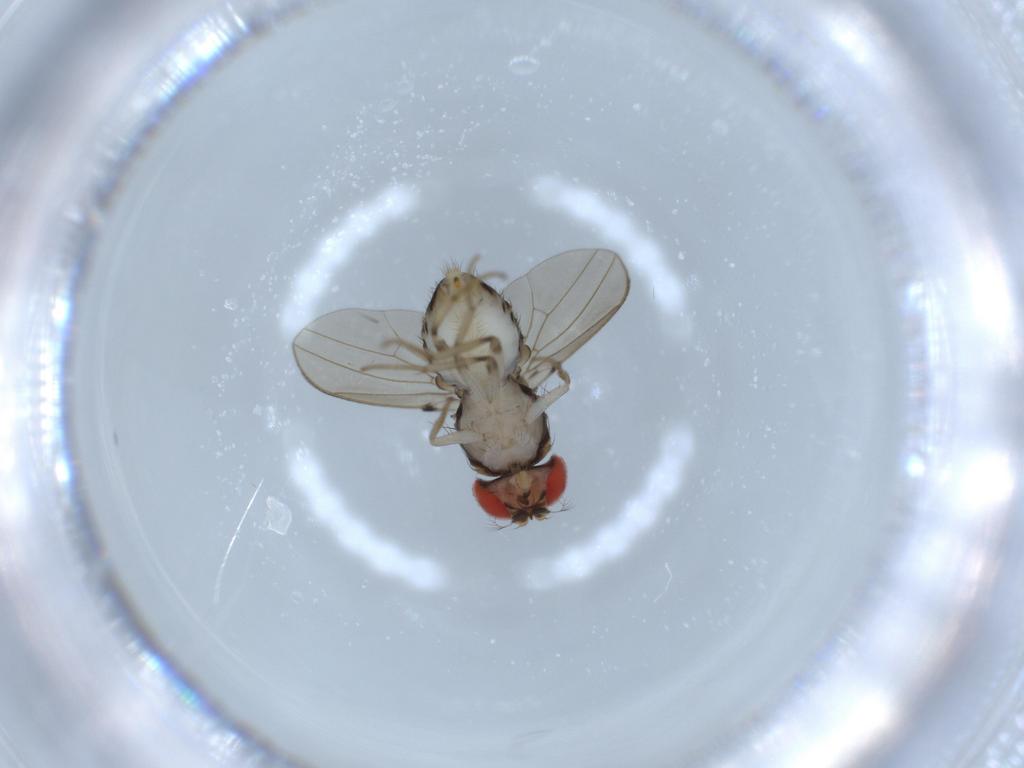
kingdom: Animalia
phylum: Arthropoda
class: Insecta
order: Diptera
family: Drosophilidae
